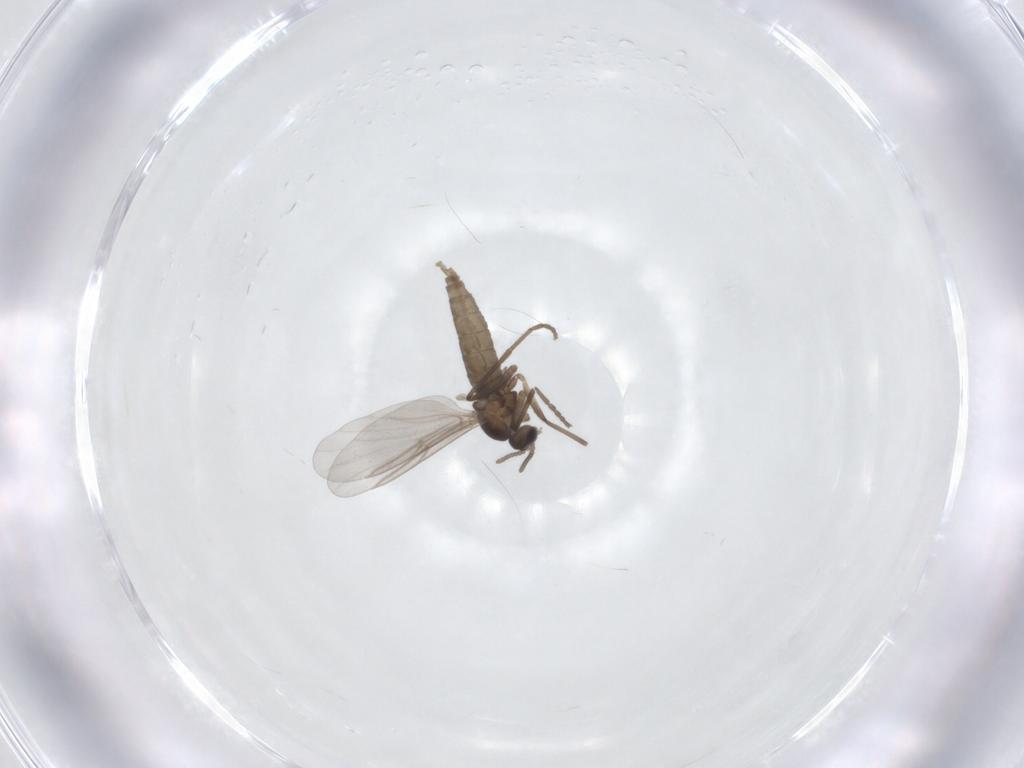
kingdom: Animalia
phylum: Arthropoda
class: Insecta
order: Diptera
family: Cecidomyiidae
